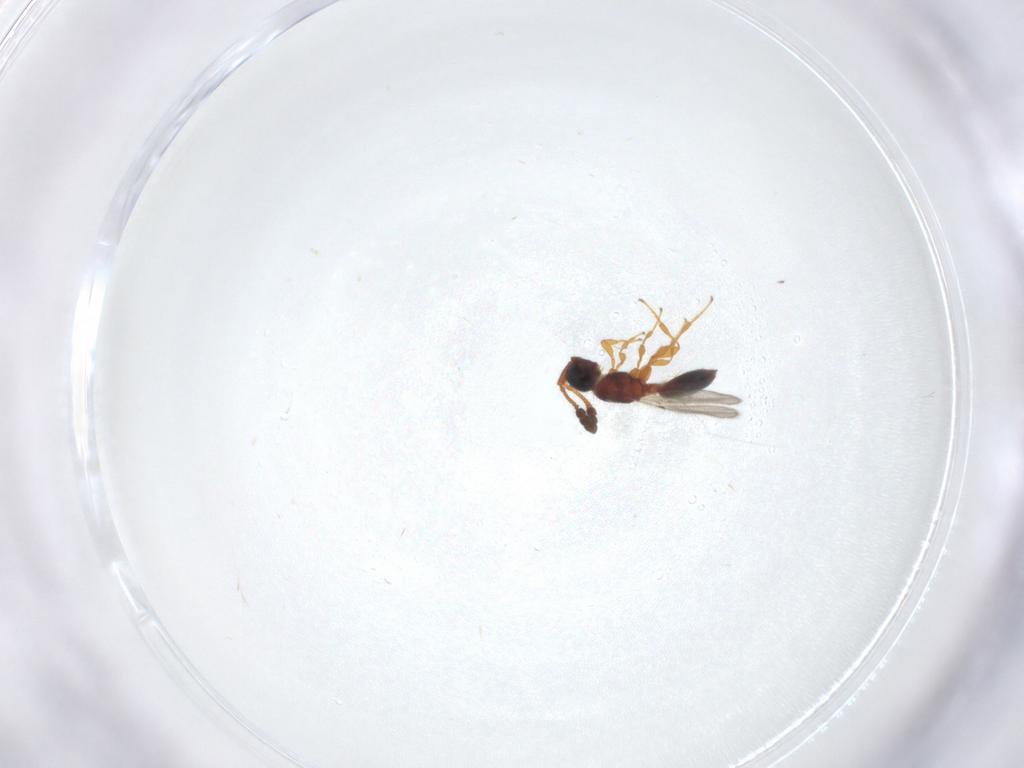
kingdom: Animalia
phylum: Arthropoda
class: Insecta
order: Hymenoptera
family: Diapriidae
